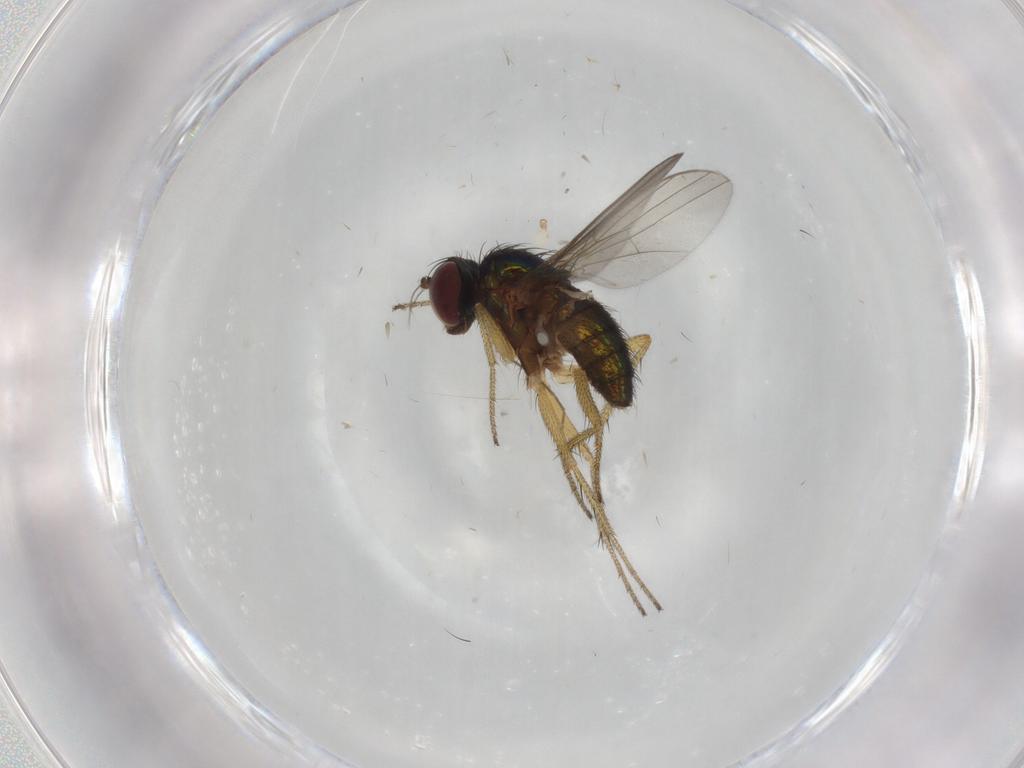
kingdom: Animalia
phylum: Arthropoda
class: Insecta
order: Diptera
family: Dolichopodidae
